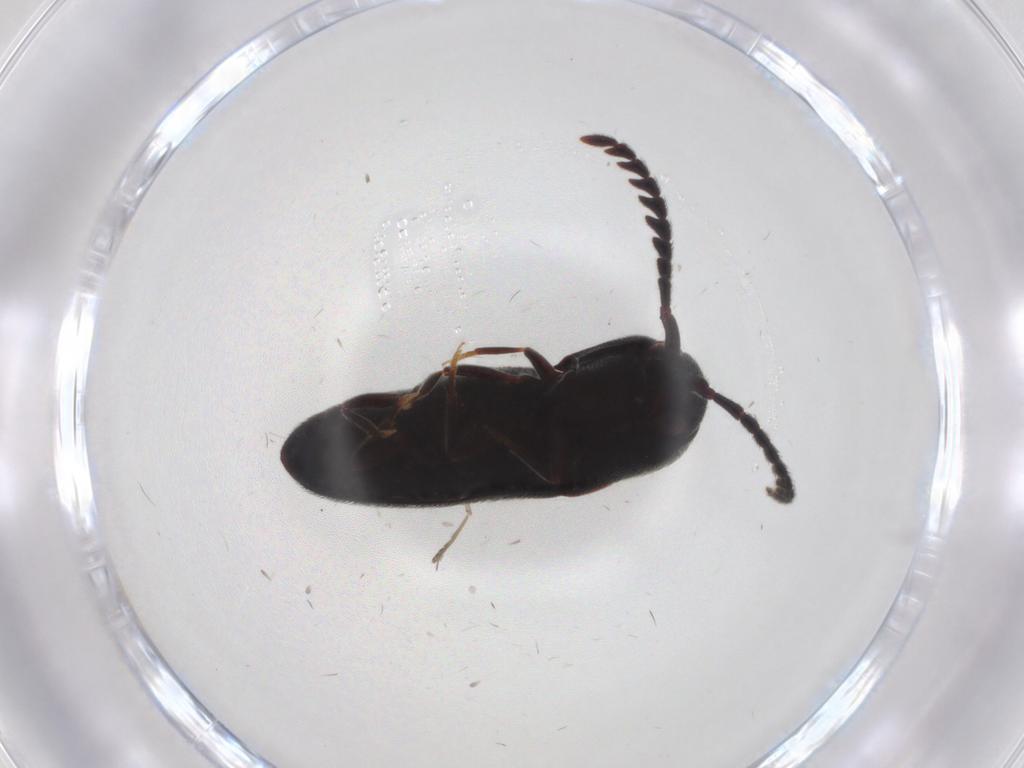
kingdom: Animalia
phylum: Arthropoda
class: Insecta
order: Coleoptera
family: Eucnemidae
